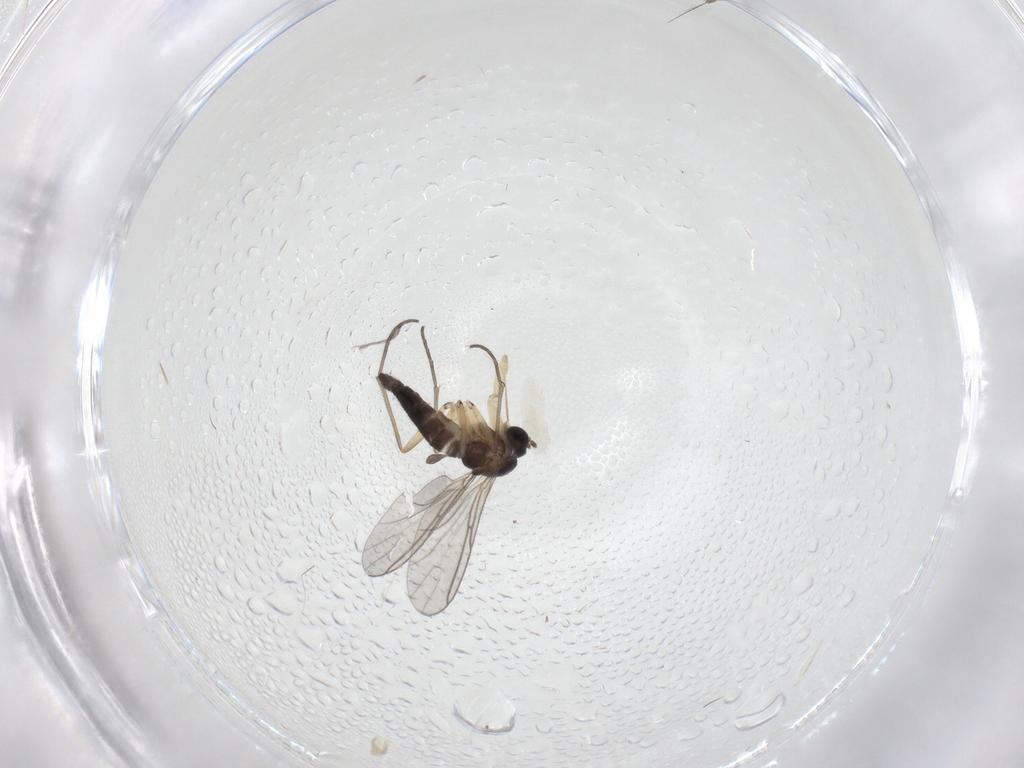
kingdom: Animalia
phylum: Arthropoda
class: Insecta
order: Diptera
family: Sciaridae
